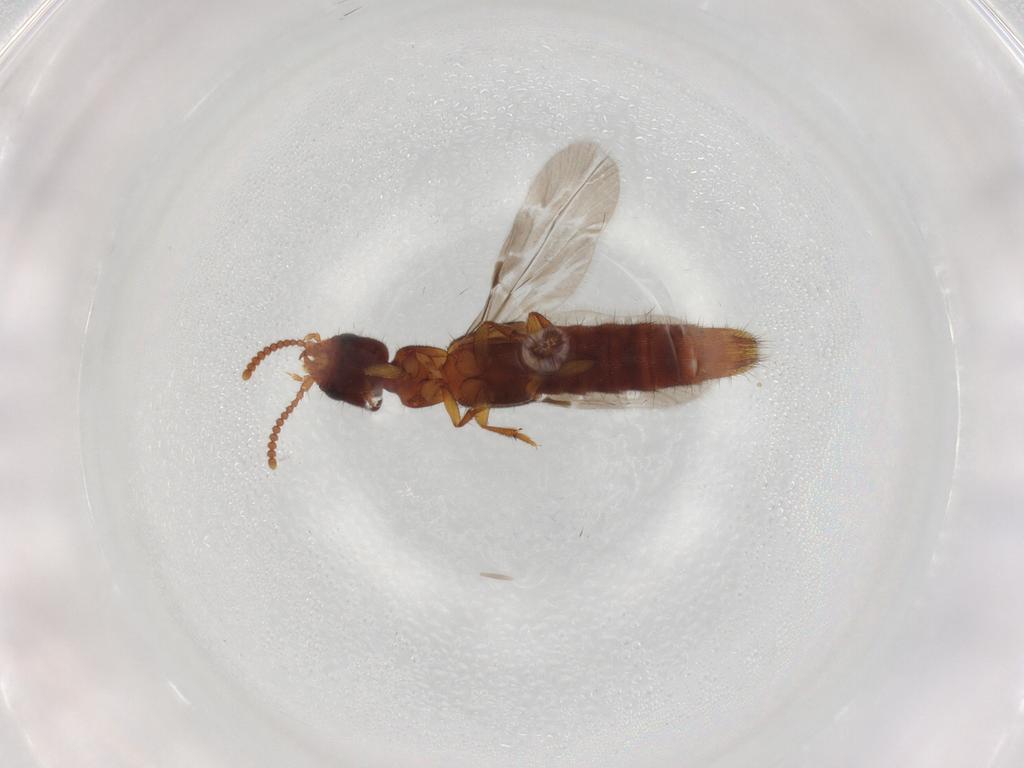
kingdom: Animalia
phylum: Arthropoda
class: Insecta
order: Coleoptera
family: Staphylinidae
